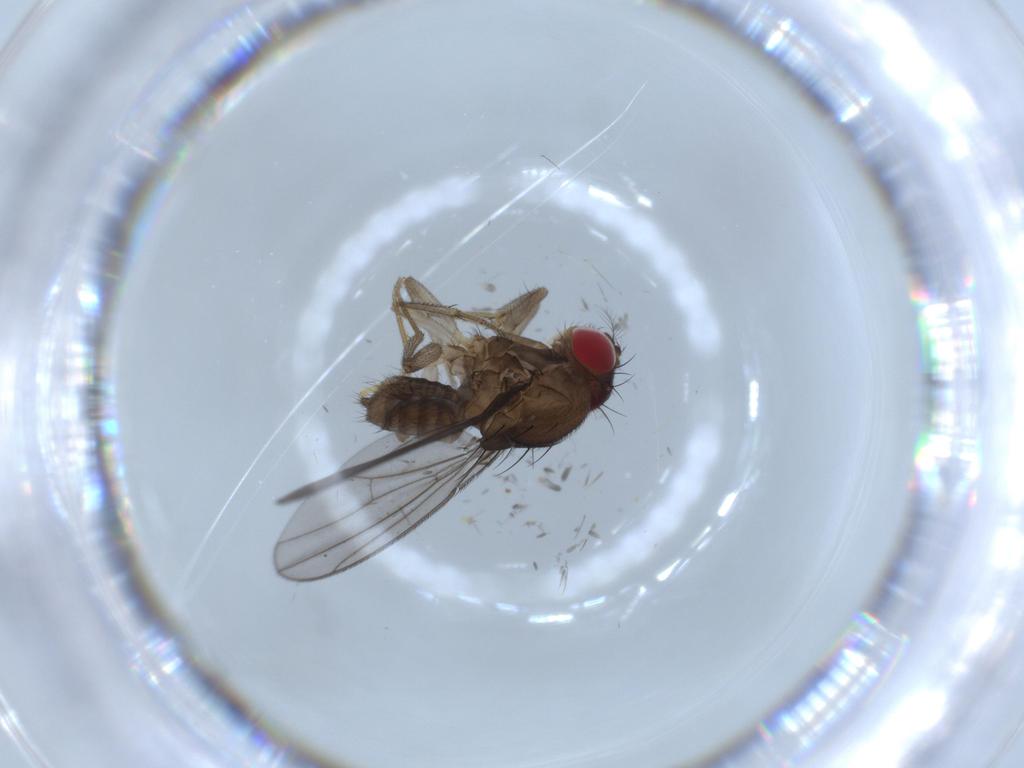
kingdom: Animalia
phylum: Arthropoda
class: Insecta
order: Diptera
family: Drosophilidae
